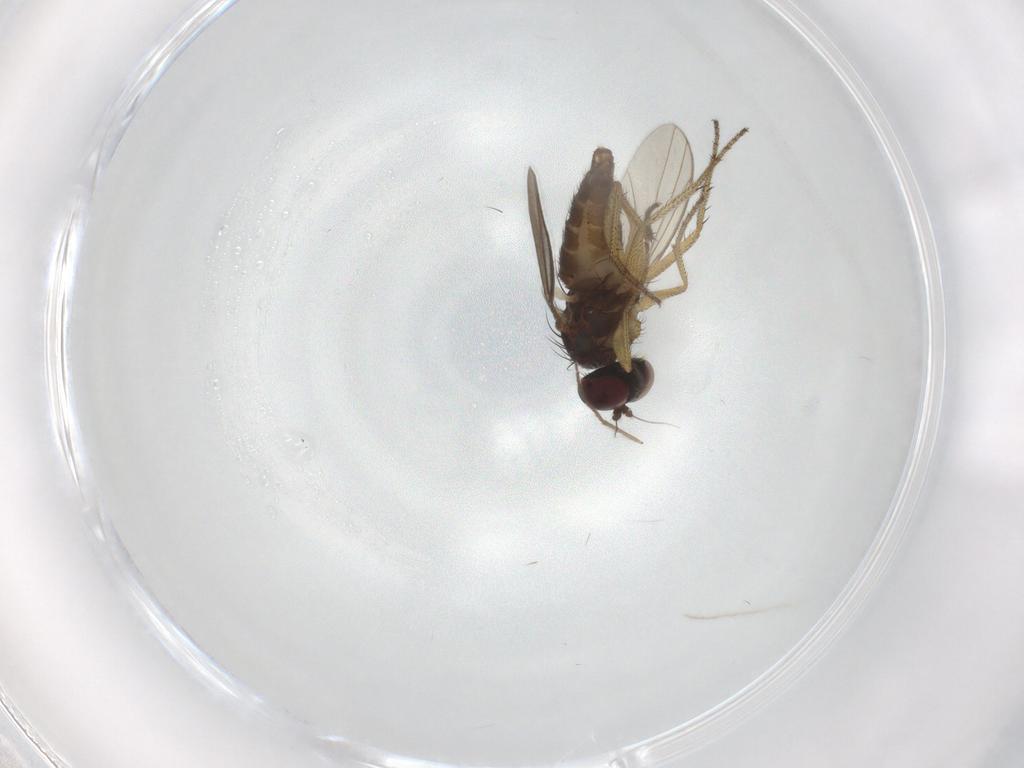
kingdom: Animalia
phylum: Arthropoda
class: Insecta
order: Diptera
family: Dolichopodidae
